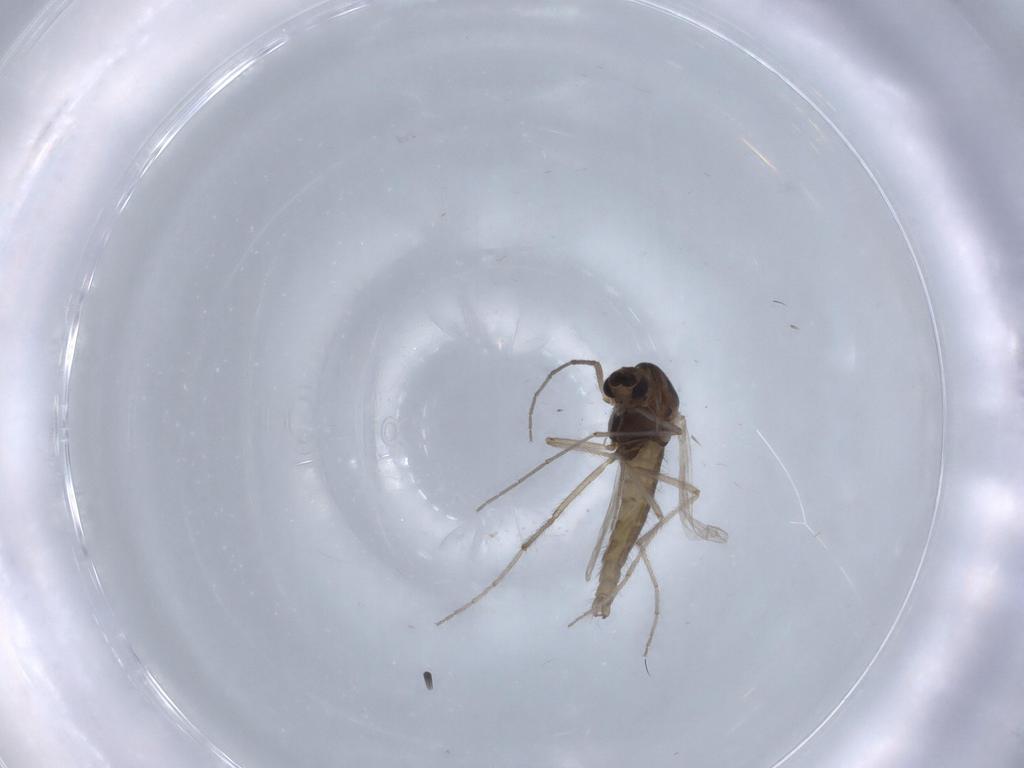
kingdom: Animalia
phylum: Arthropoda
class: Insecta
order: Diptera
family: Chironomidae
